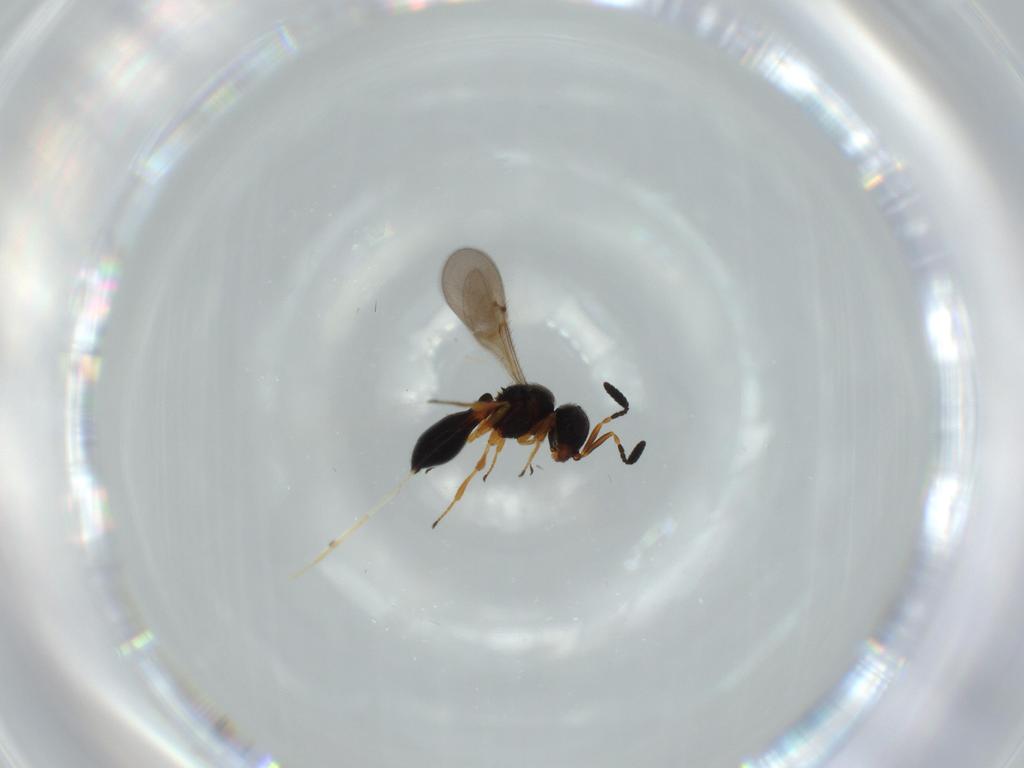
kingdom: Animalia
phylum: Arthropoda
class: Insecta
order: Hymenoptera
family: Scelionidae
